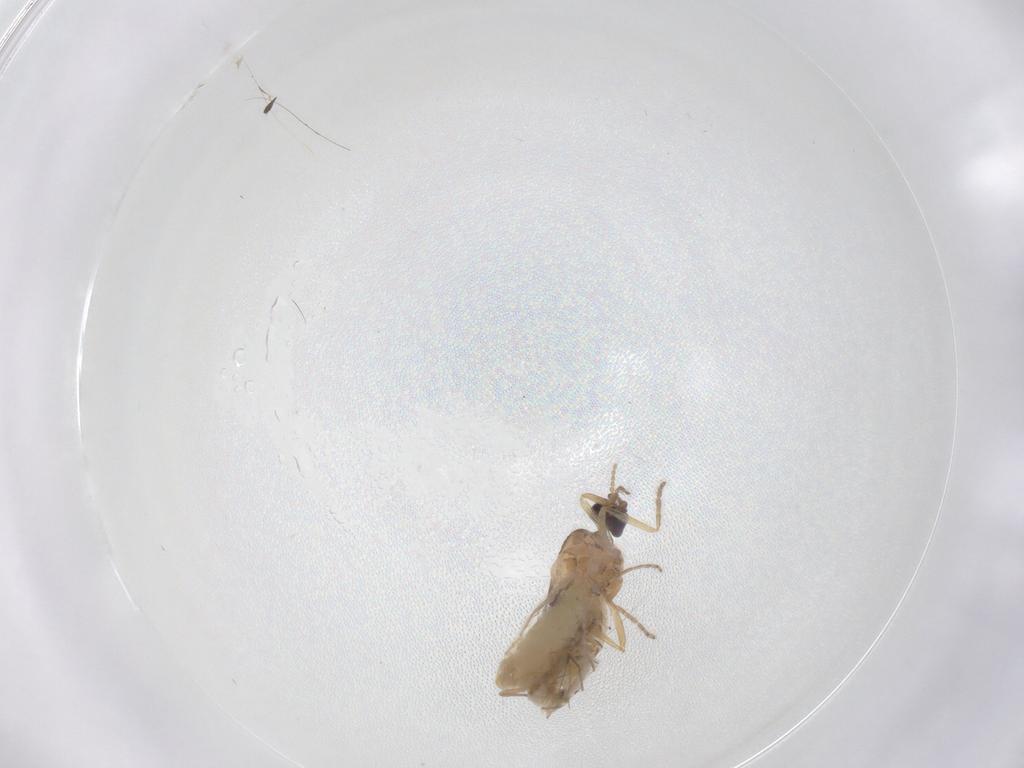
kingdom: Animalia
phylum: Arthropoda
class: Insecta
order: Diptera
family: Ceratopogonidae
